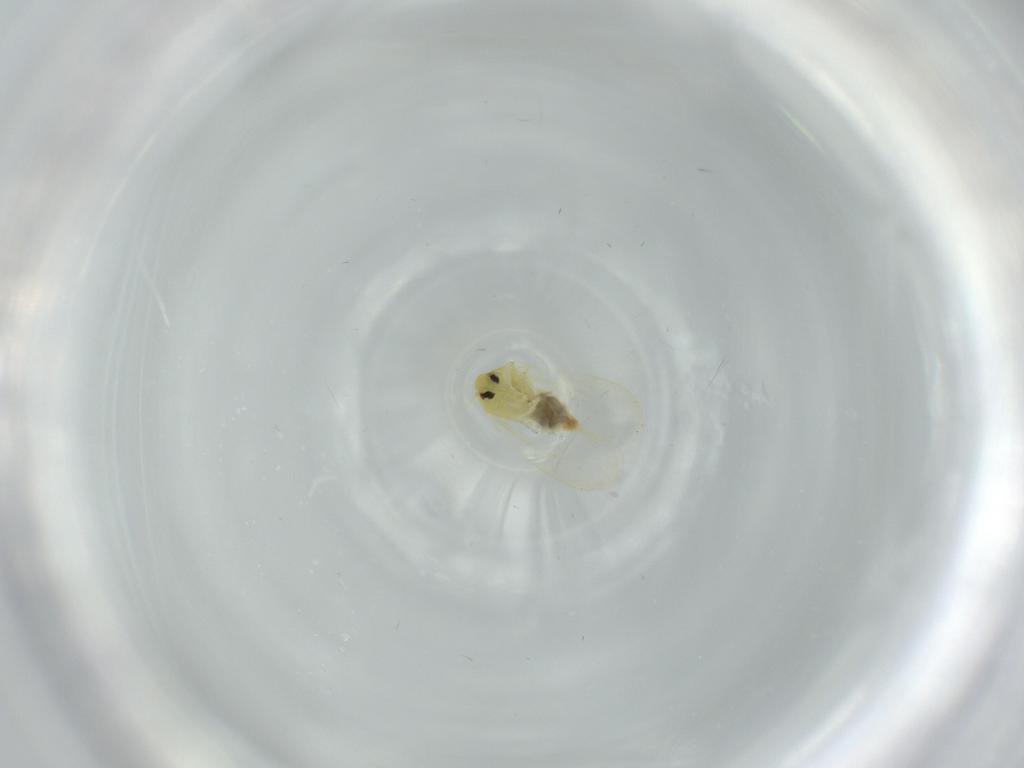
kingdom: Animalia
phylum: Arthropoda
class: Insecta
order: Hemiptera
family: Aleyrodidae
